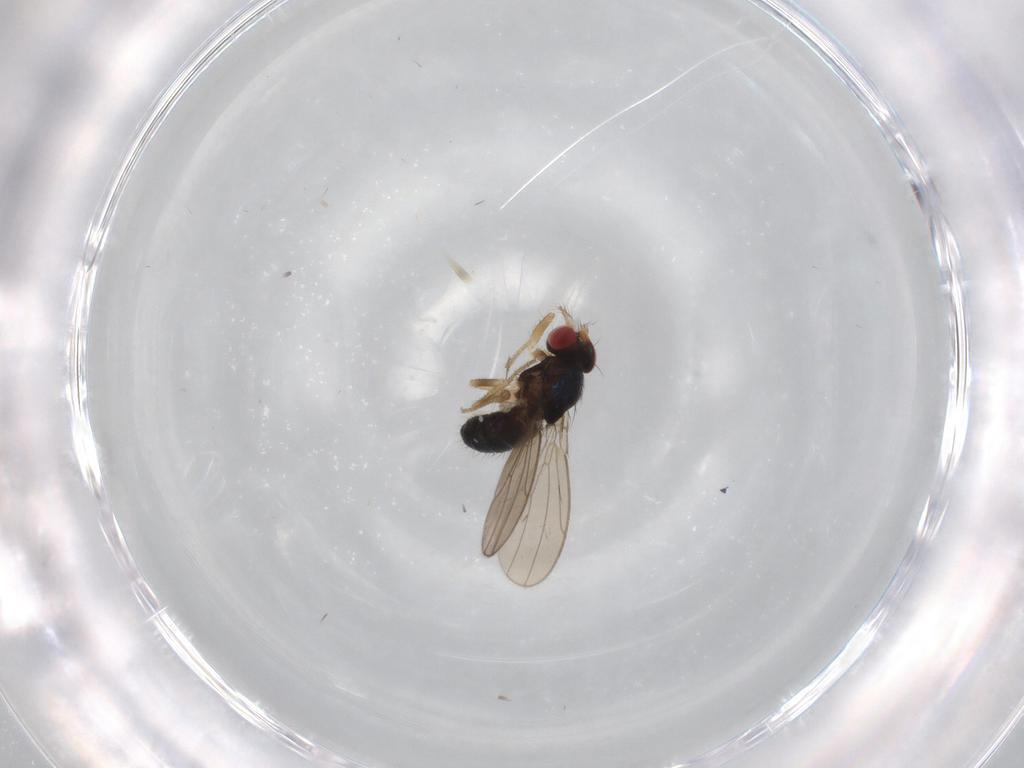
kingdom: Animalia
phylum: Arthropoda
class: Insecta
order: Diptera
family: Drosophilidae
